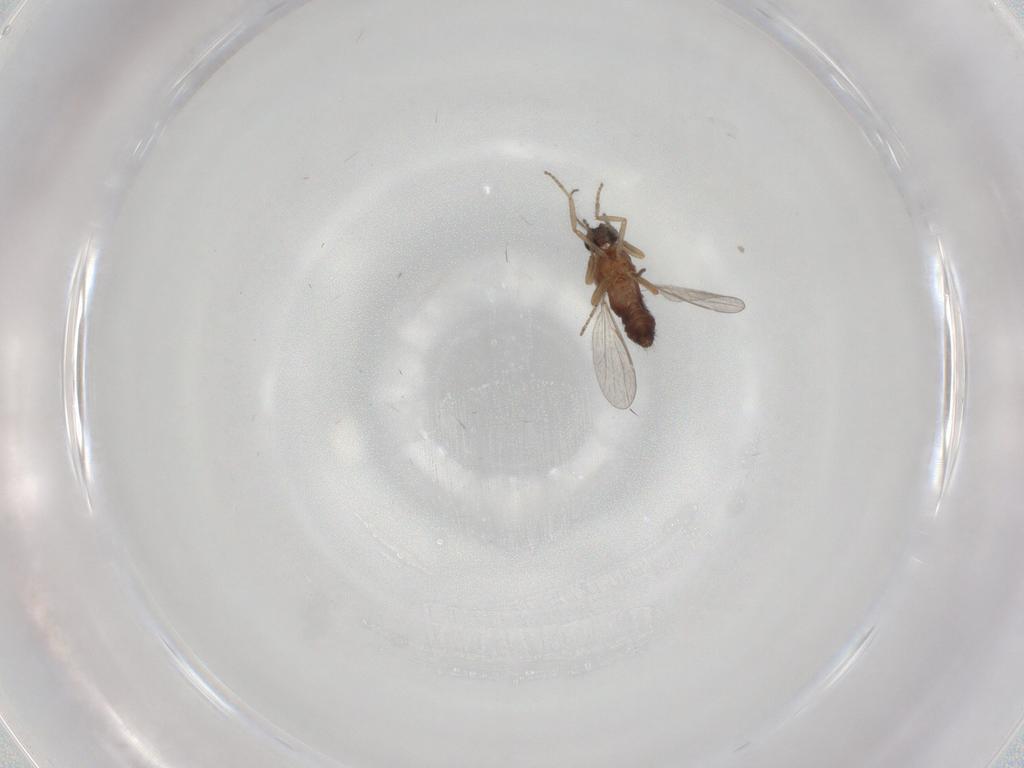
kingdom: Animalia
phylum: Arthropoda
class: Insecta
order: Diptera
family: Ceratopogonidae
